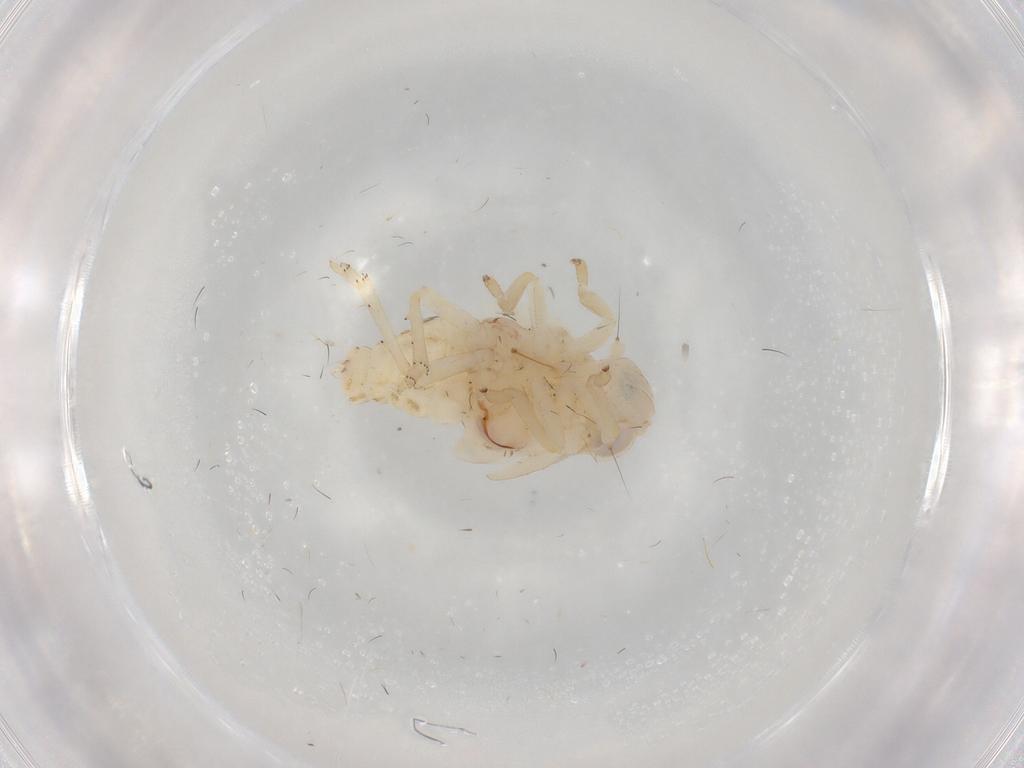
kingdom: Animalia
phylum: Arthropoda
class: Insecta
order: Hemiptera
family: Nogodinidae
